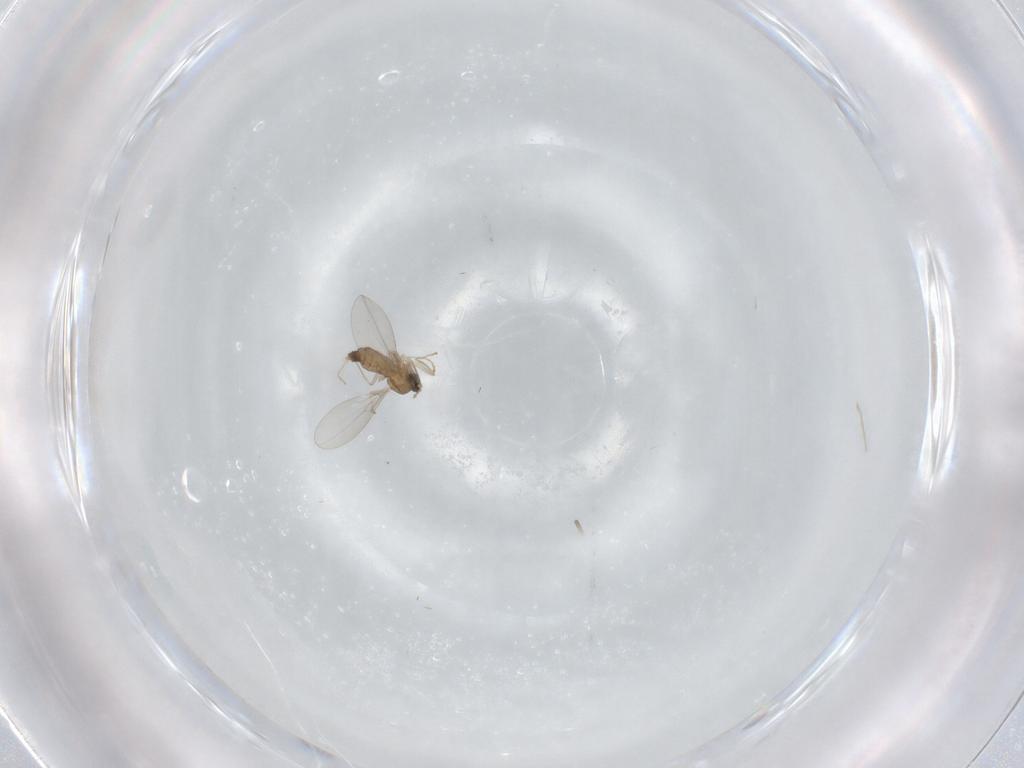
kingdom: Animalia
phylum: Arthropoda
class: Insecta
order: Diptera
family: Cecidomyiidae
